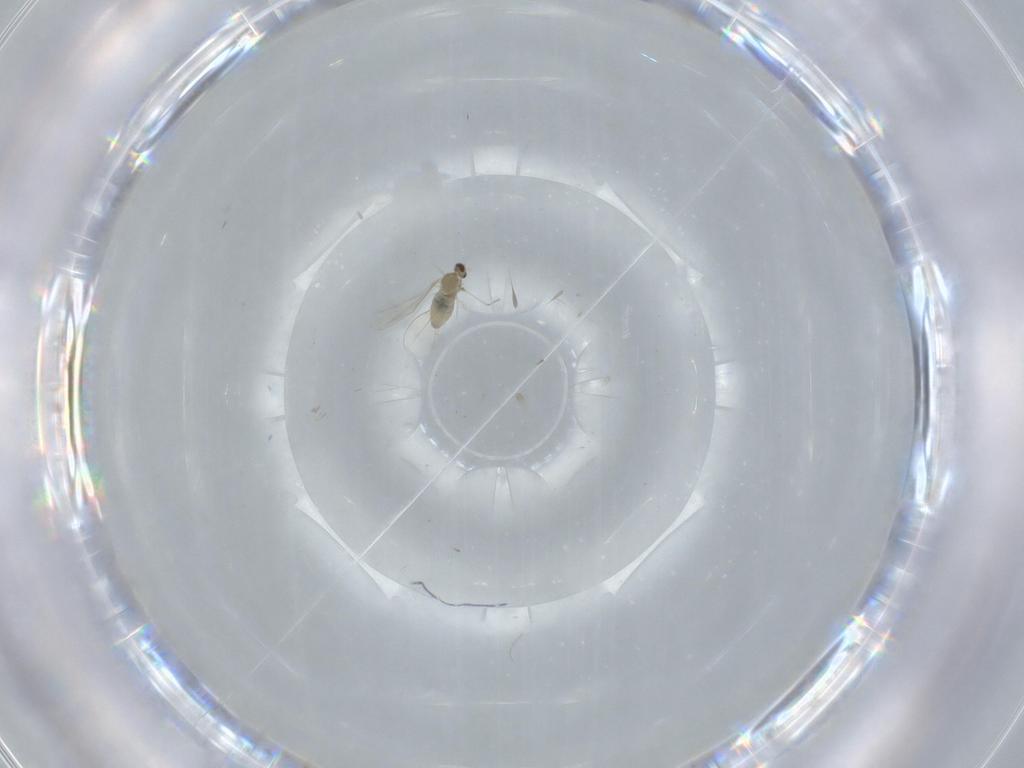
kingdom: Animalia
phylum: Arthropoda
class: Insecta
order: Diptera
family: Cecidomyiidae
